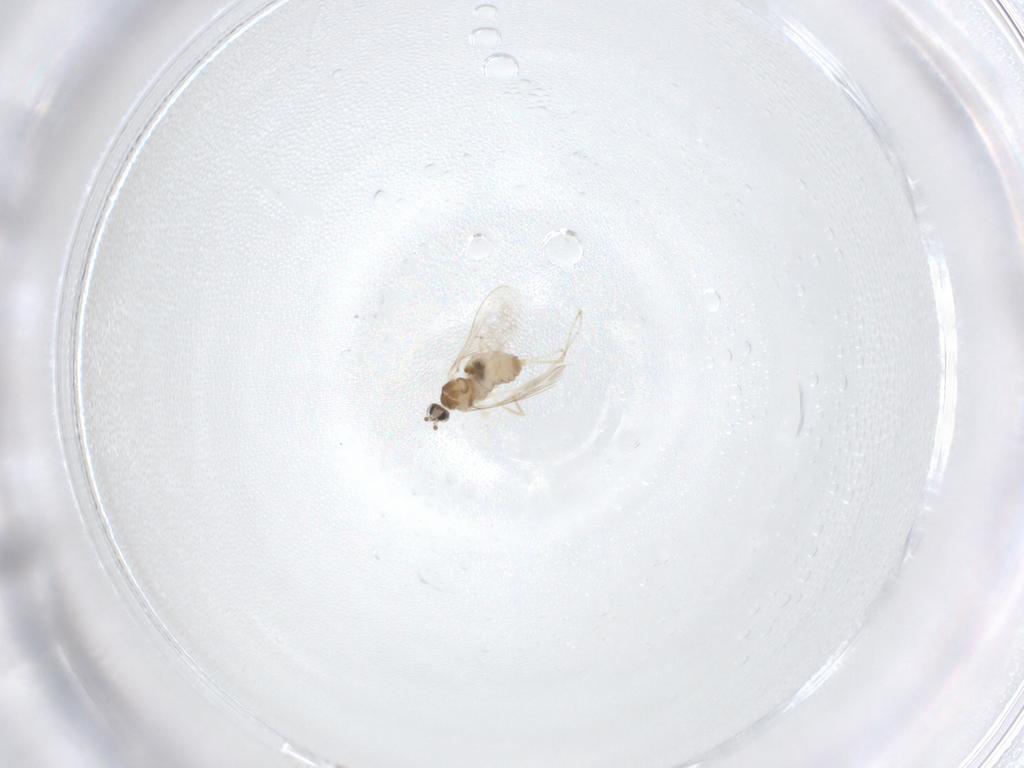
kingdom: Animalia
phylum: Arthropoda
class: Insecta
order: Diptera
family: Cecidomyiidae
